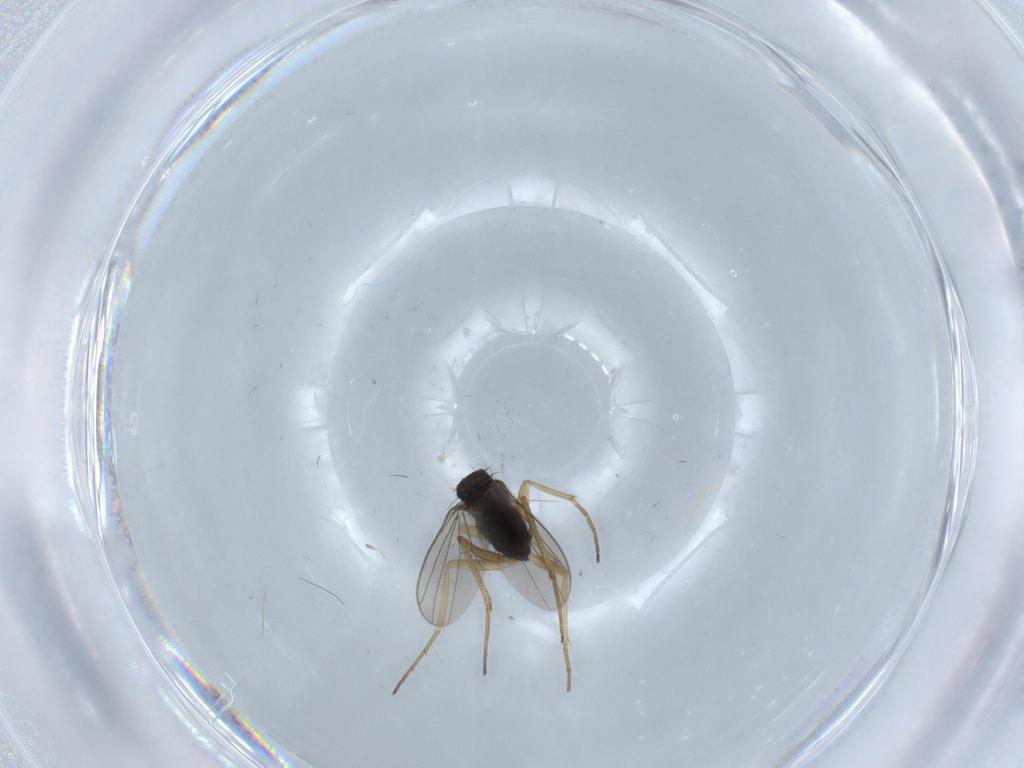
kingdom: Animalia
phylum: Arthropoda
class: Insecta
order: Diptera
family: Dolichopodidae
